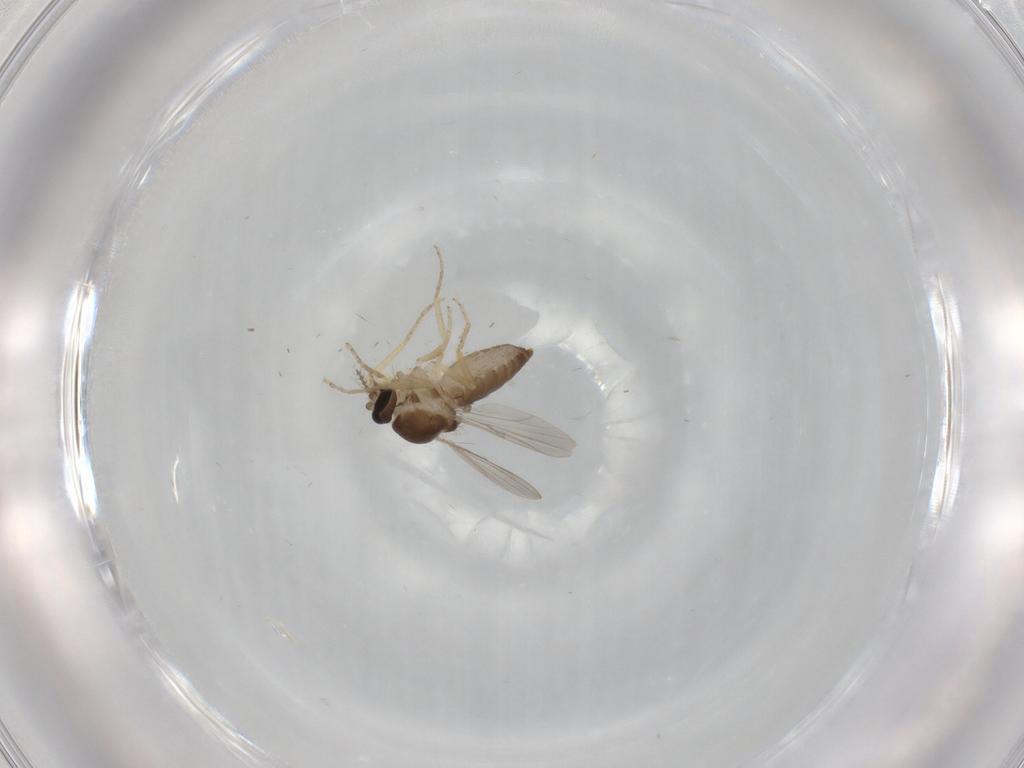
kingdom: Animalia
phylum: Arthropoda
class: Insecta
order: Diptera
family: Ceratopogonidae
